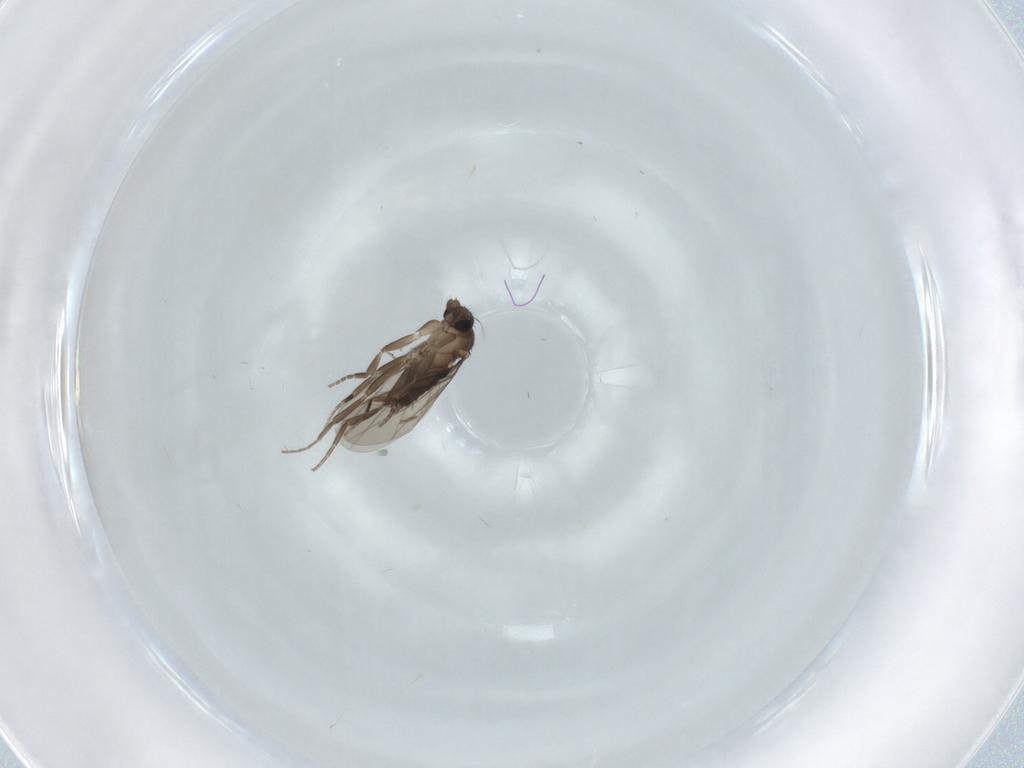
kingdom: Animalia
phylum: Arthropoda
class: Insecta
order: Diptera
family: Phoridae
